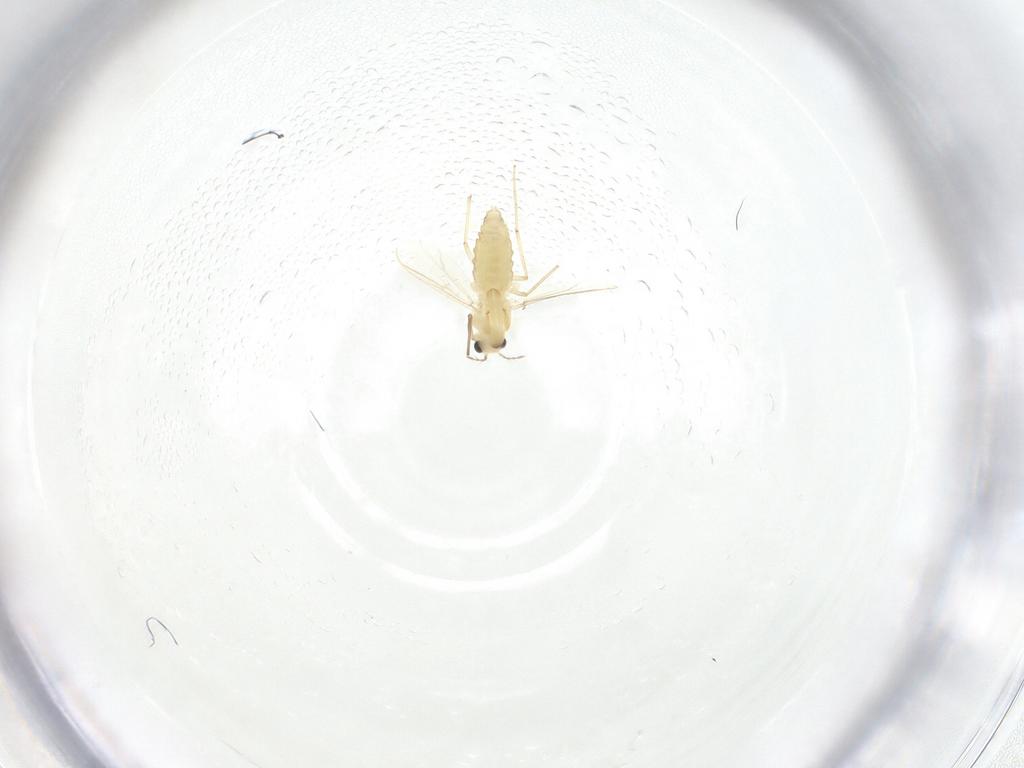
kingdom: Animalia
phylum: Arthropoda
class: Insecta
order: Diptera
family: Chironomidae
